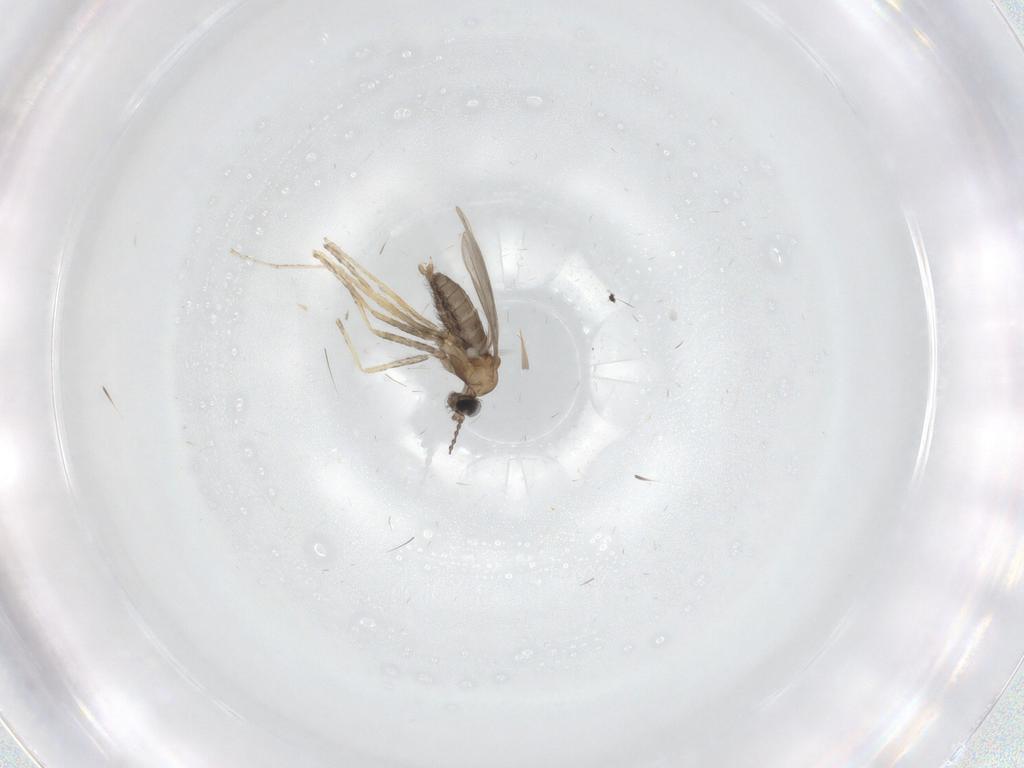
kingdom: Animalia
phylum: Arthropoda
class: Insecta
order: Diptera
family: Cecidomyiidae
